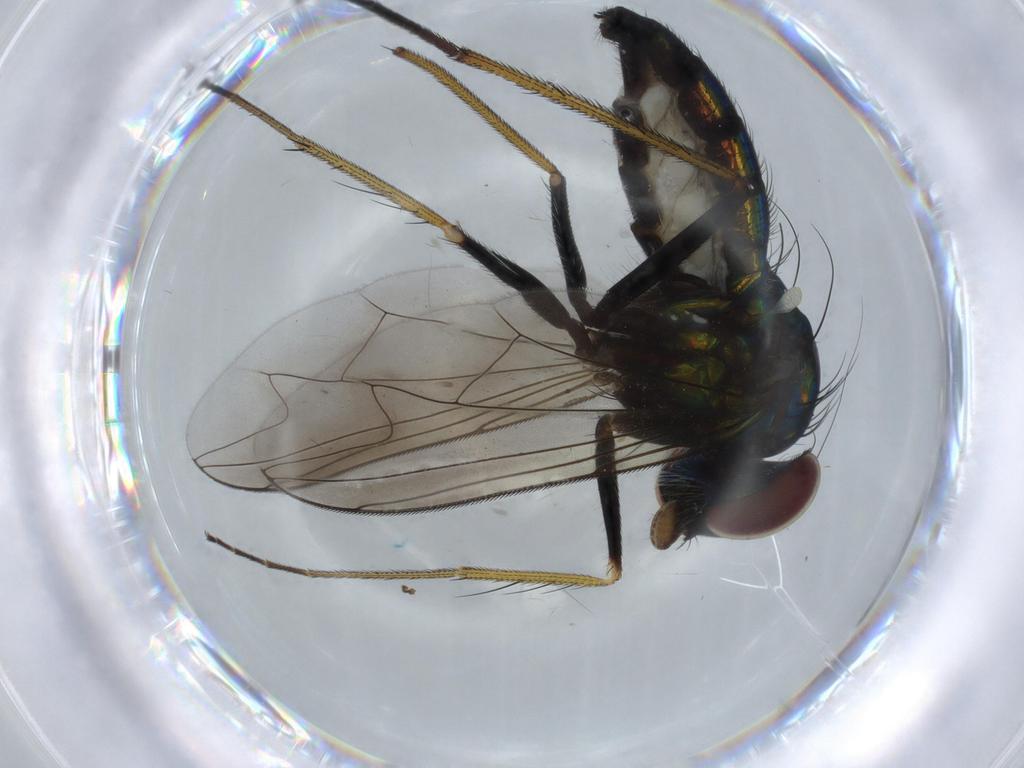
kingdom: Animalia
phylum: Arthropoda
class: Insecta
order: Diptera
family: Dolichopodidae
